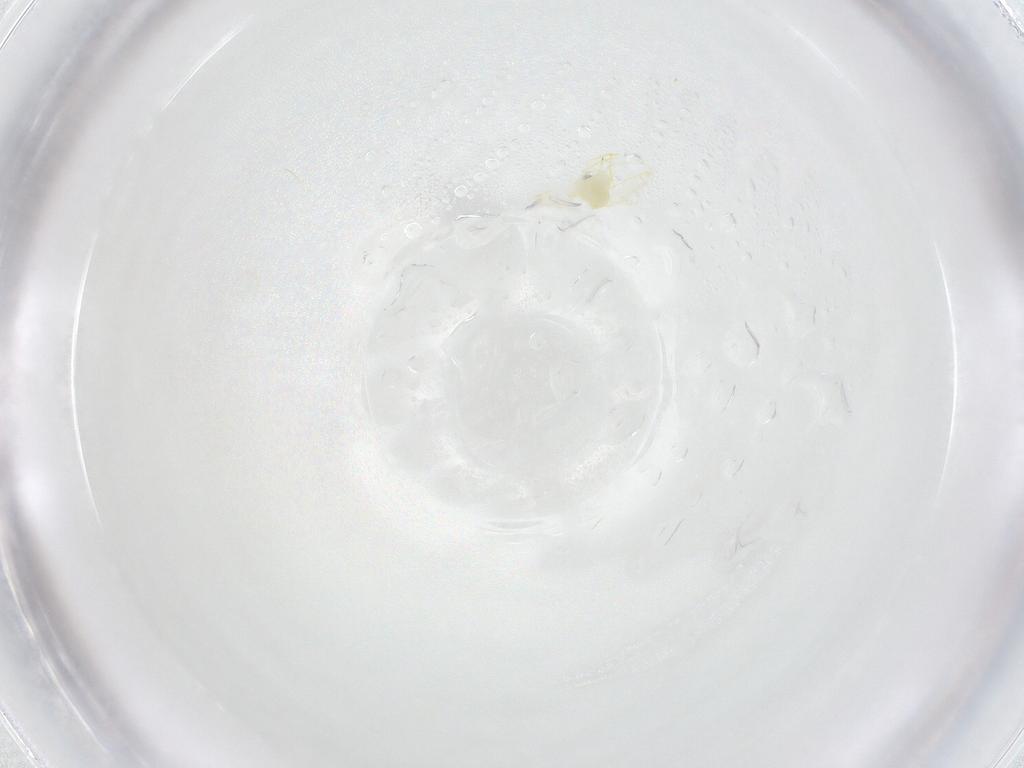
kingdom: Animalia
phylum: Arthropoda
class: Insecta
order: Hemiptera
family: Aleyrodidae
